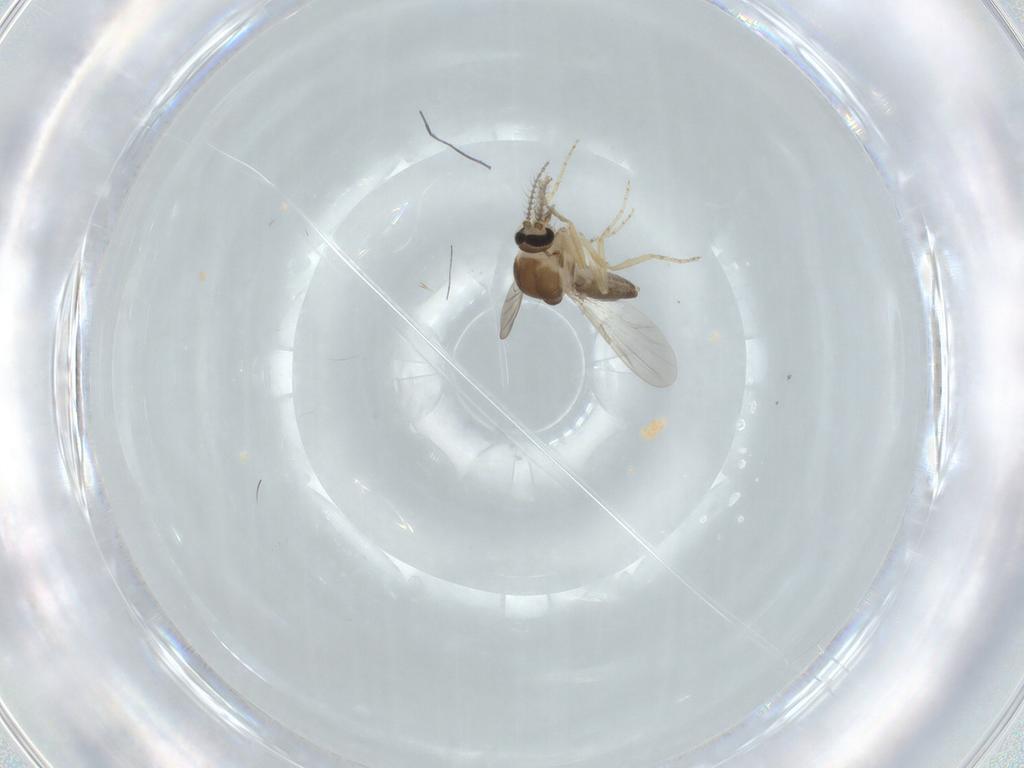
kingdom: Animalia
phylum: Arthropoda
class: Insecta
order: Diptera
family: Ceratopogonidae
